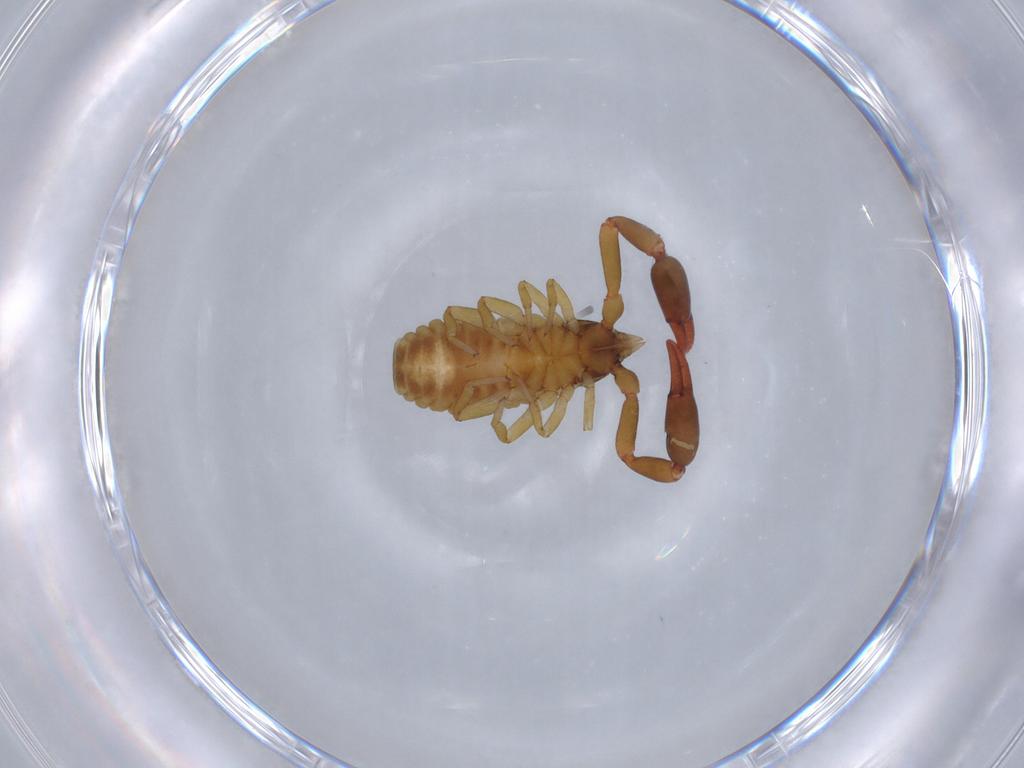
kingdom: Animalia
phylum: Arthropoda
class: Arachnida
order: Pseudoscorpiones
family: Withiidae
